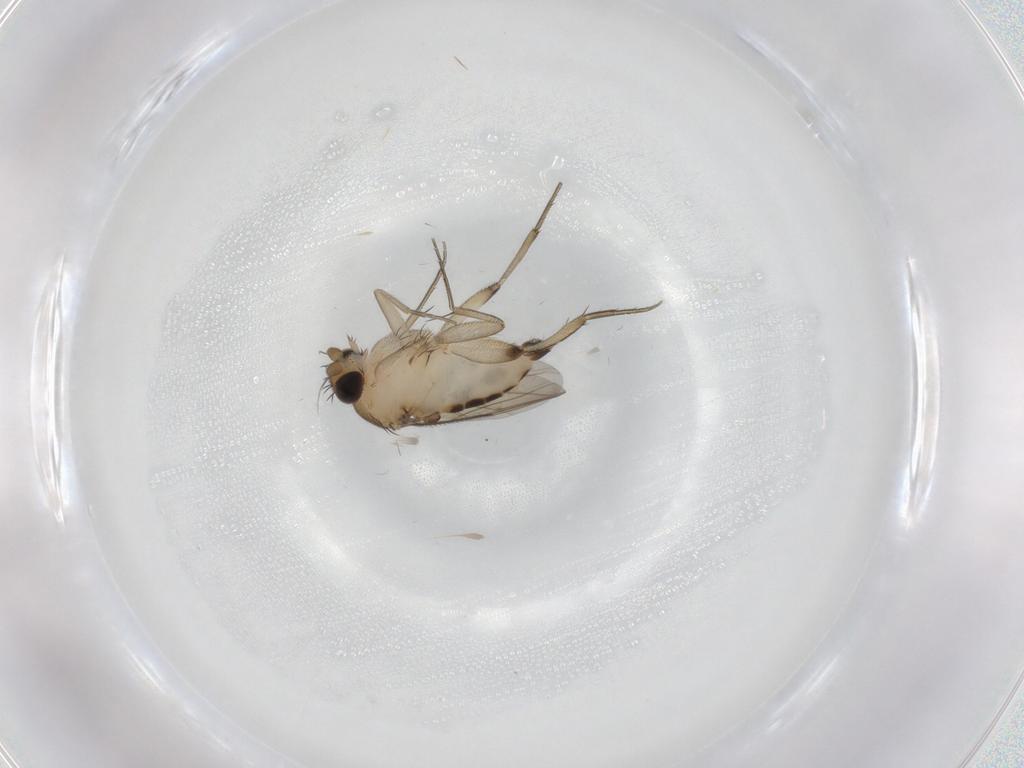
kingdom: Animalia
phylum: Arthropoda
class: Insecta
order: Diptera
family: Phoridae
